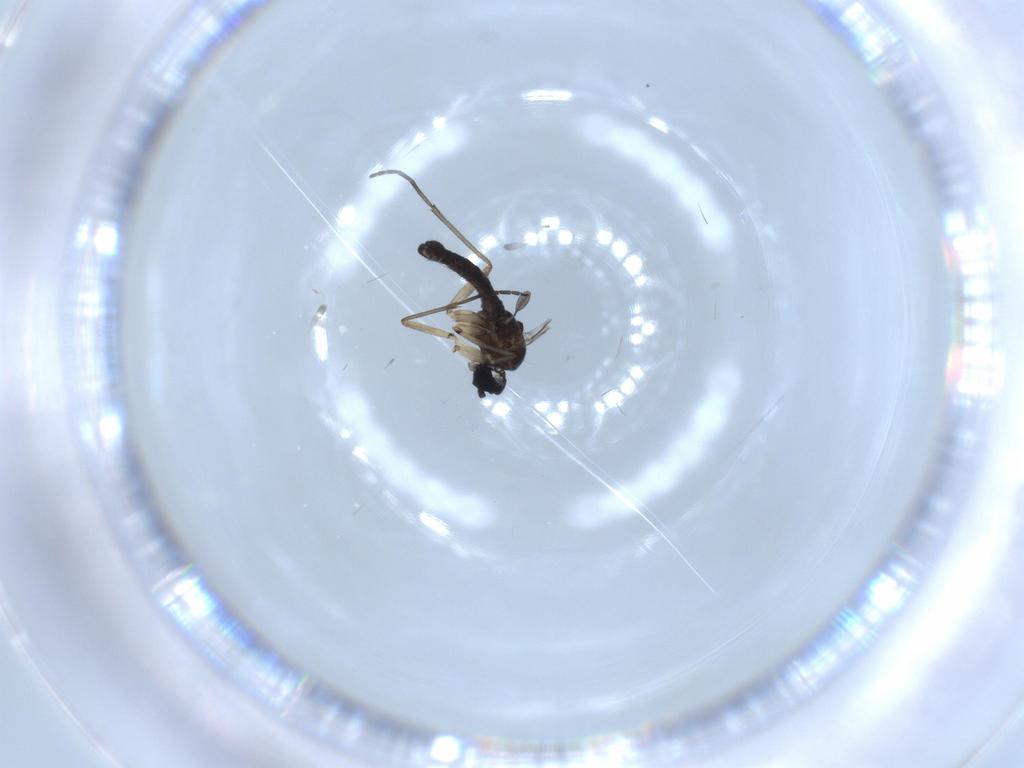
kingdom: Animalia
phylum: Arthropoda
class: Insecta
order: Diptera
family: Sciaridae
